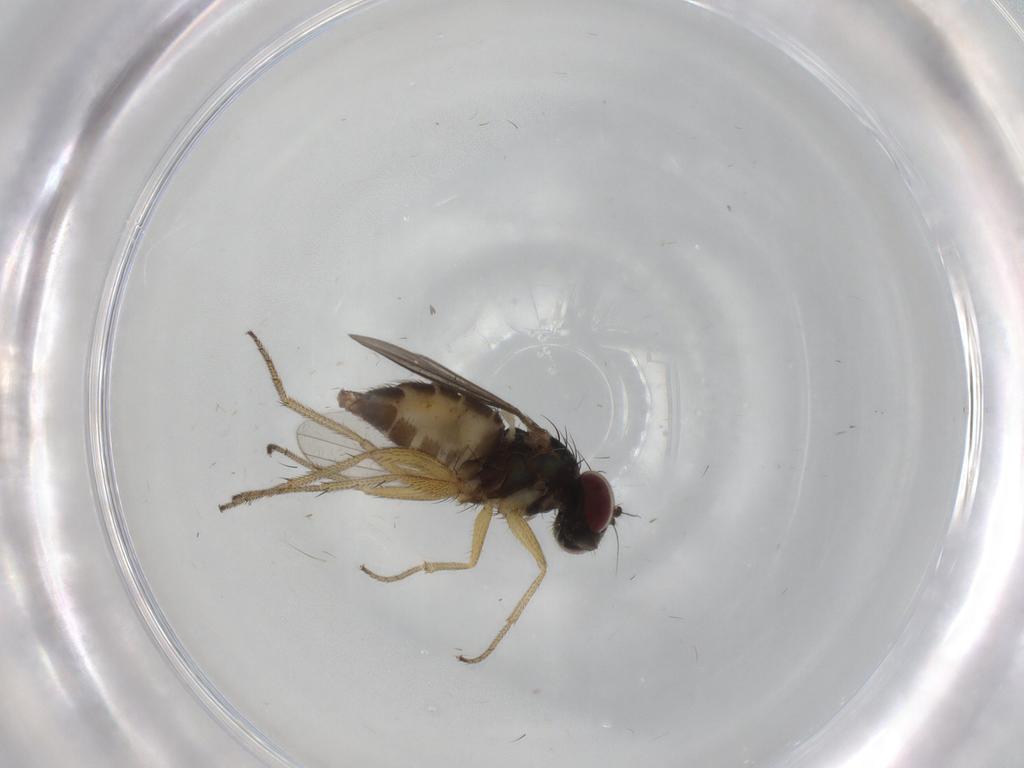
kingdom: Animalia
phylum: Arthropoda
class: Insecta
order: Diptera
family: Dolichopodidae
